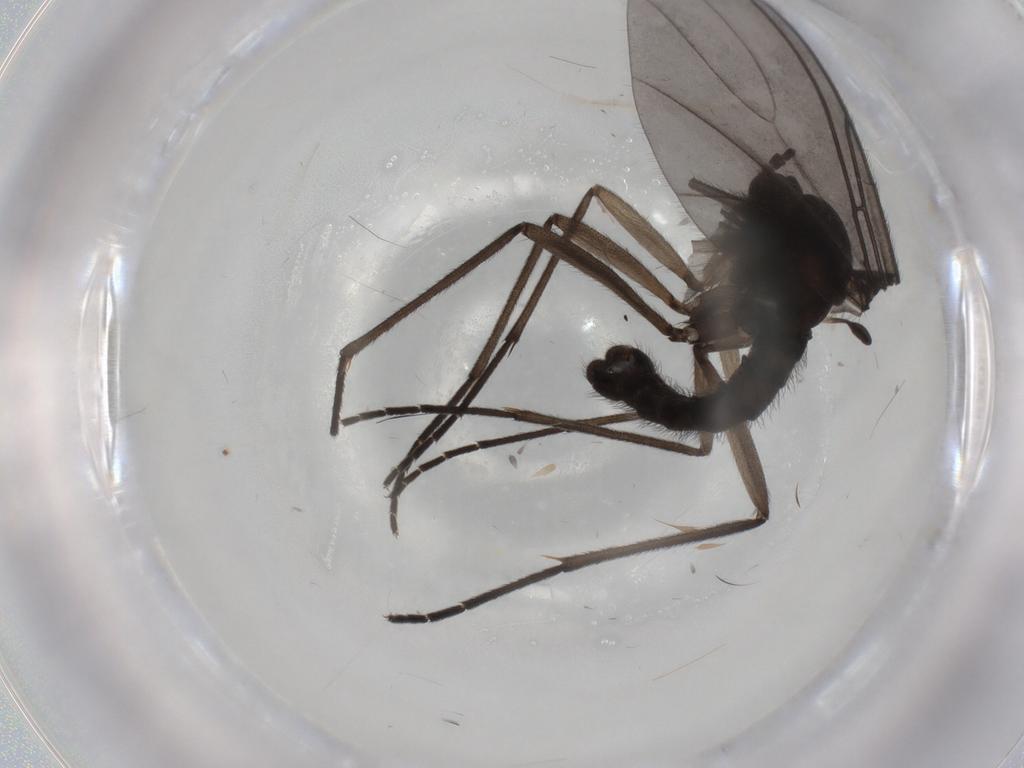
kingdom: Animalia
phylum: Arthropoda
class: Insecta
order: Diptera
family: Sciaridae
